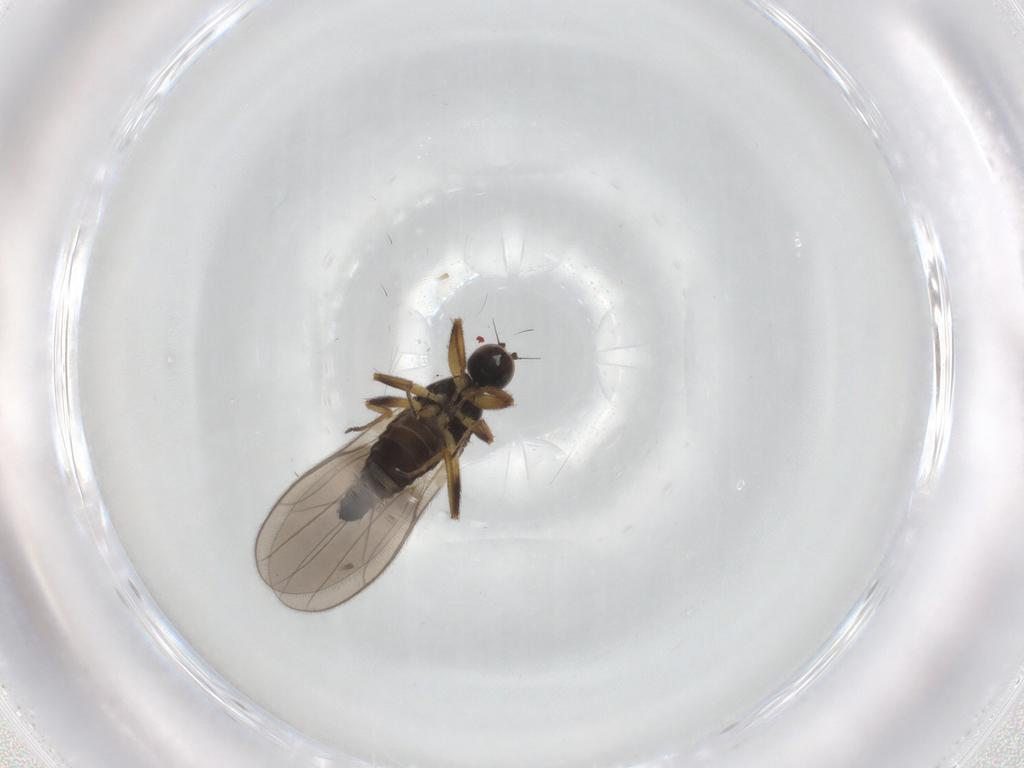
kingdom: Animalia
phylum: Arthropoda
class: Insecta
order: Diptera
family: Hybotidae
